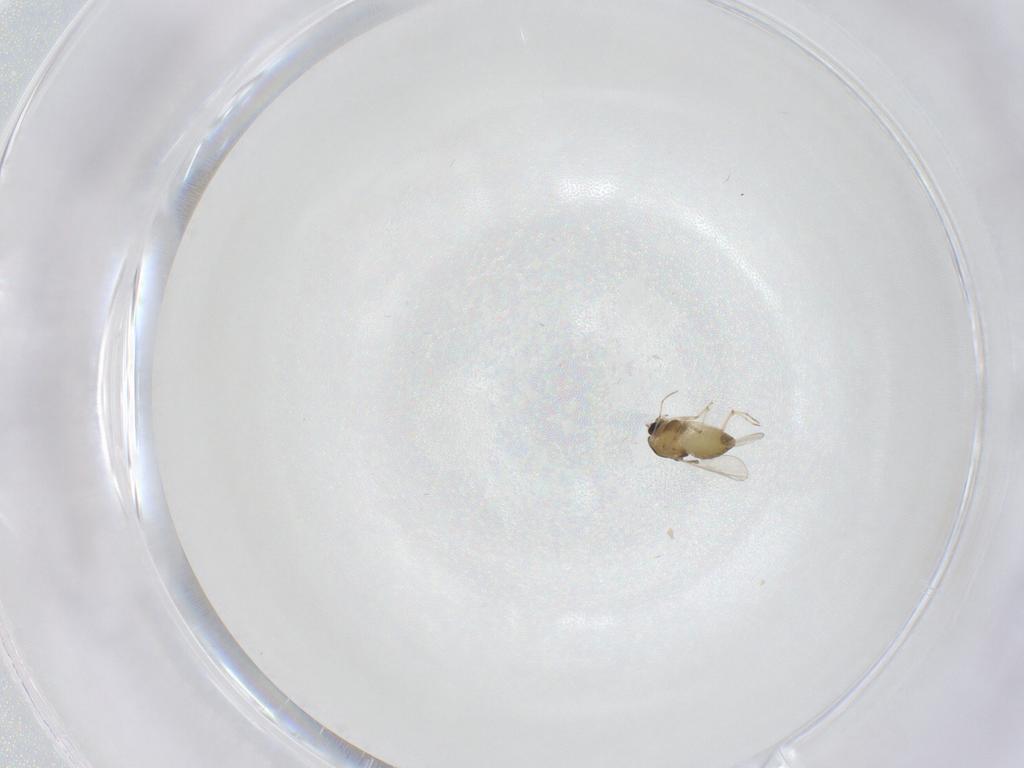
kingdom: Animalia
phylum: Arthropoda
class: Insecta
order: Diptera
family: Chironomidae
